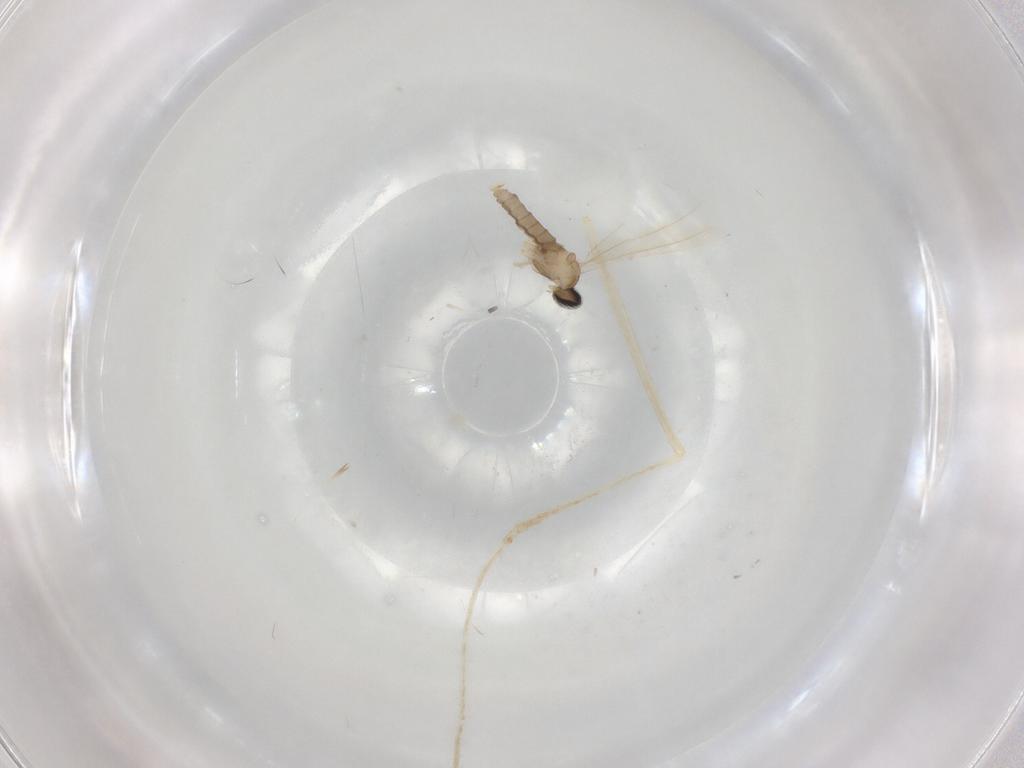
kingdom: Animalia
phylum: Arthropoda
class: Insecta
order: Diptera
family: Cecidomyiidae
